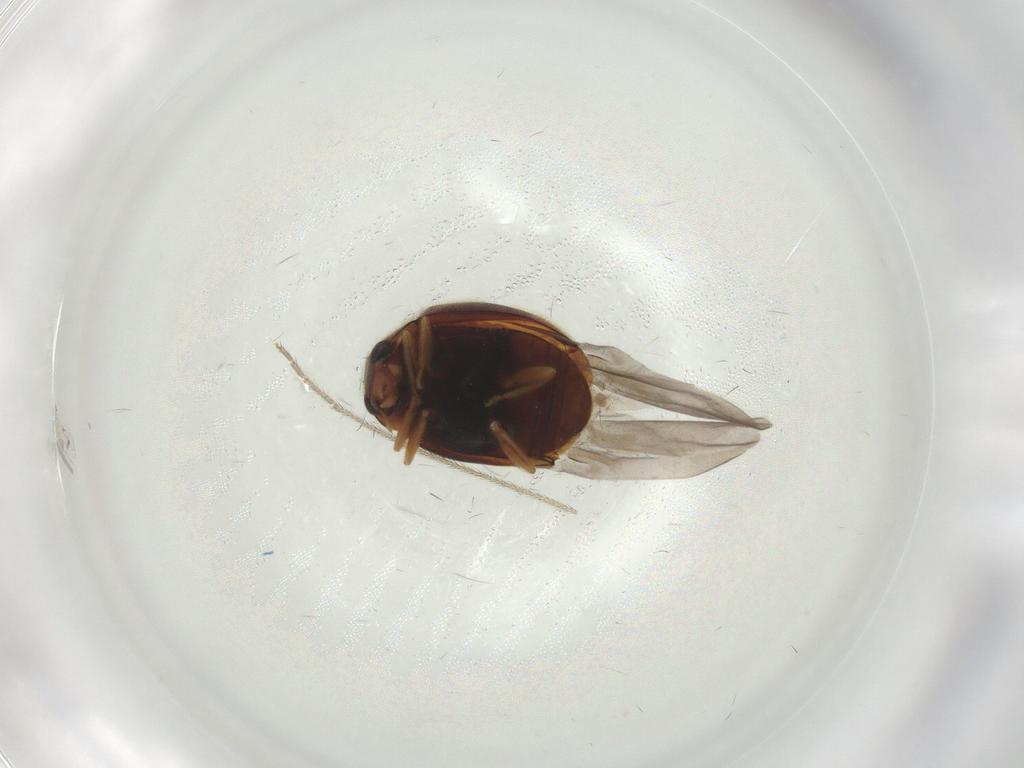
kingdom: Animalia
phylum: Arthropoda
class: Insecta
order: Coleoptera
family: Coccinellidae
